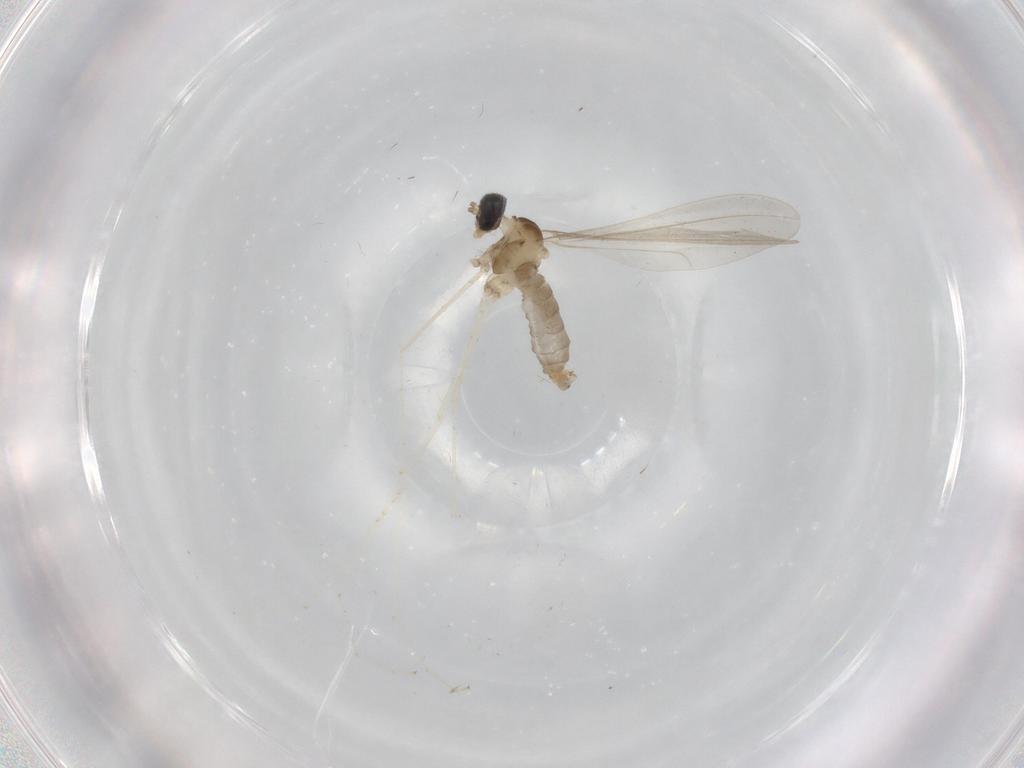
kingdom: Animalia
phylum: Arthropoda
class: Insecta
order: Diptera
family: Cecidomyiidae
